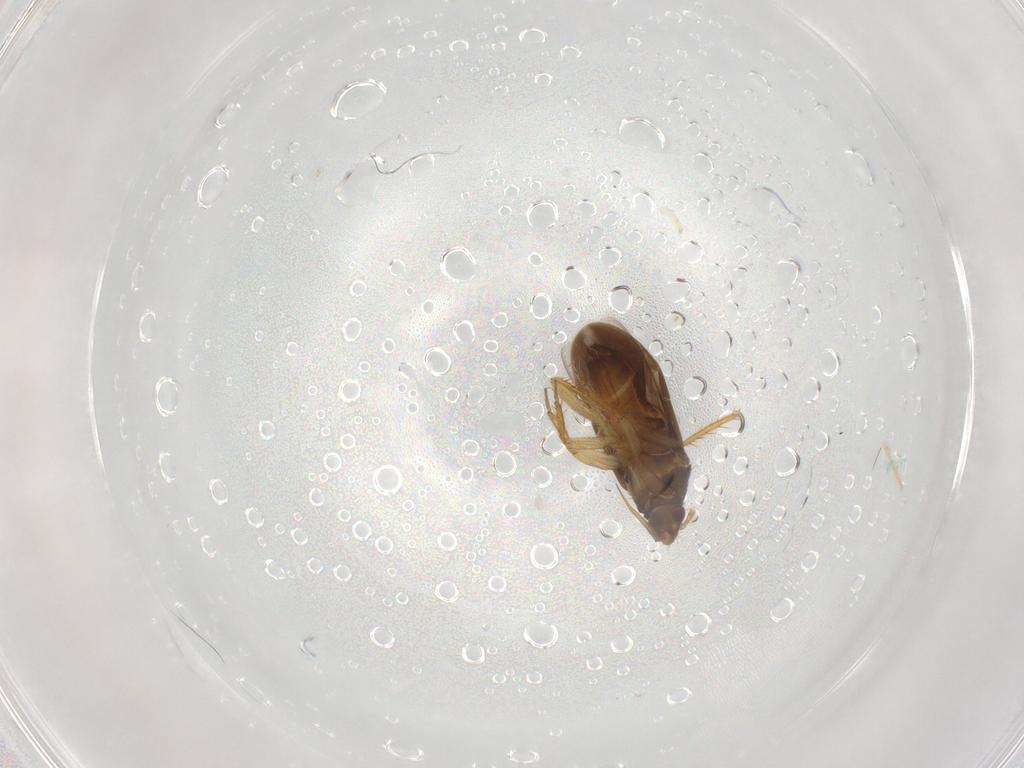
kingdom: Animalia
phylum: Arthropoda
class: Insecta
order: Hemiptera
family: Ceratocombidae
